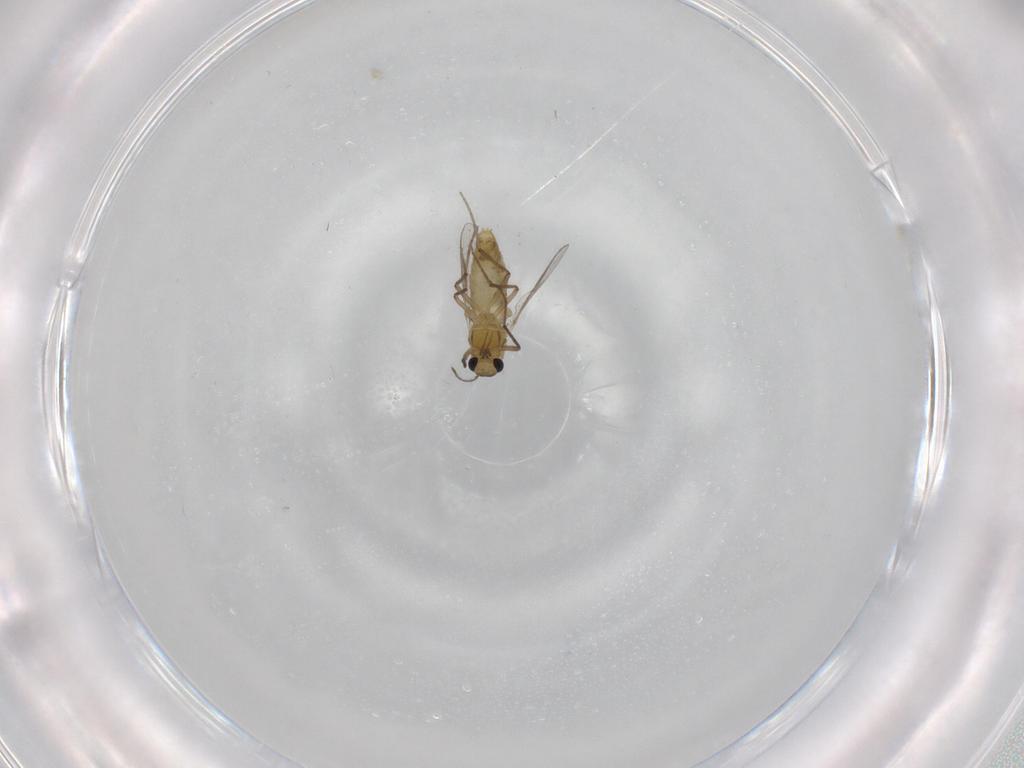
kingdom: Animalia
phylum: Arthropoda
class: Insecta
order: Diptera
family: Chironomidae
